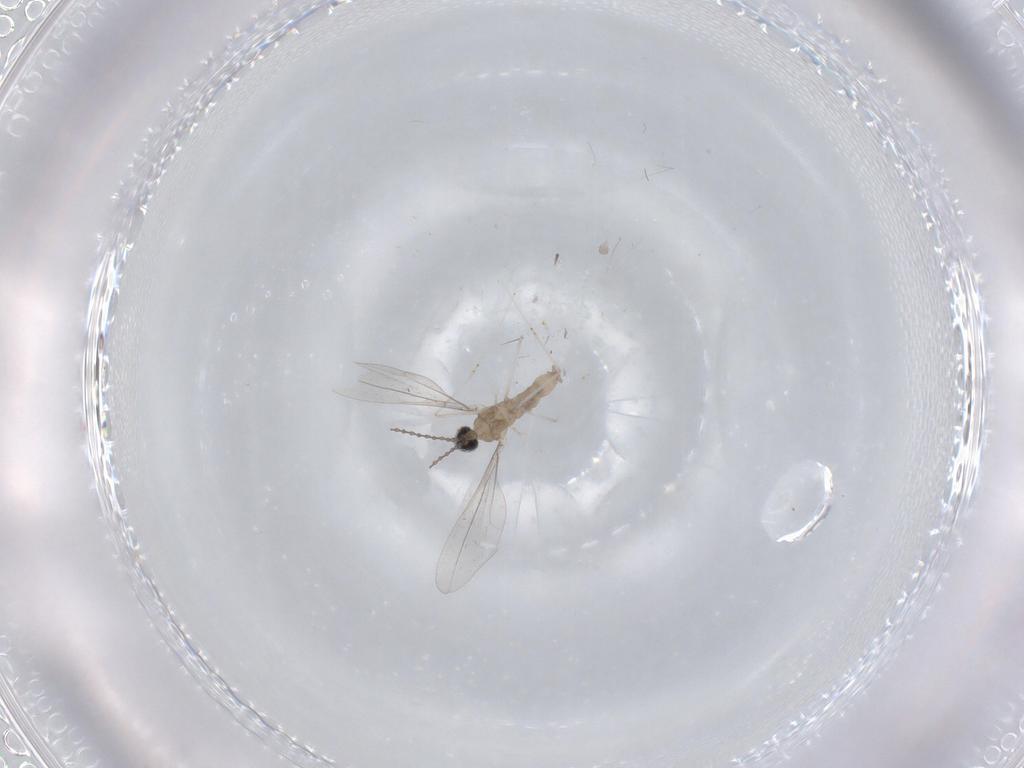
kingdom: Animalia
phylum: Arthropoda
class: Insecta
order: Diptera
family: Cecidomyiidae
